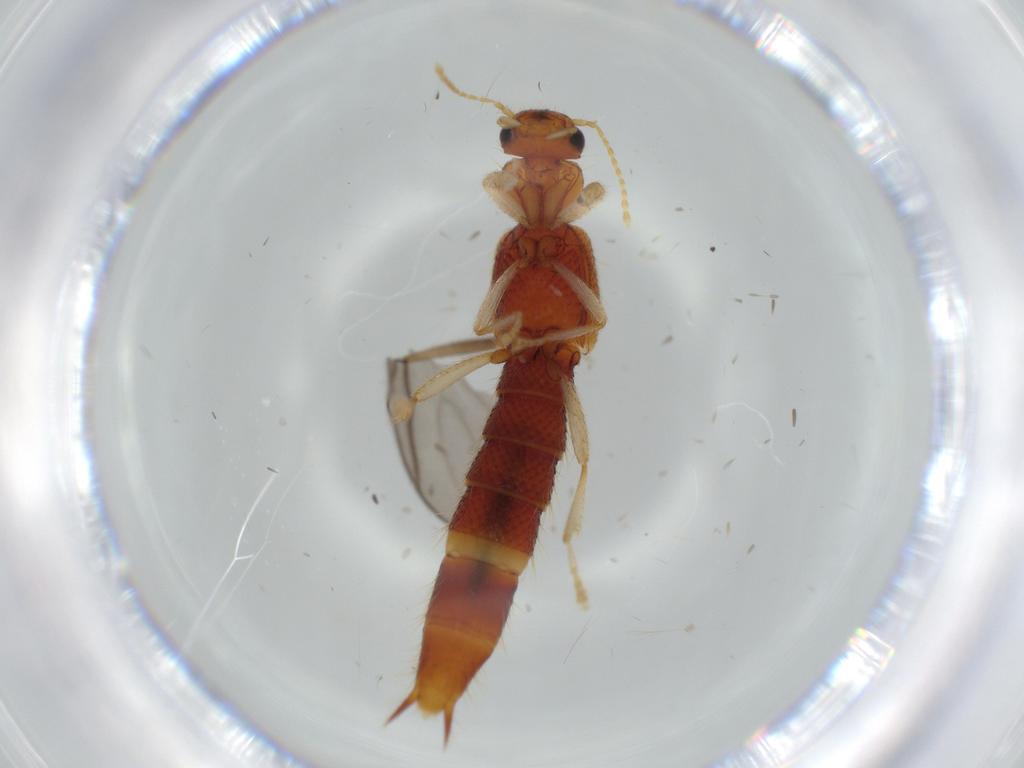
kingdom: Animalia
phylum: Arthropoda
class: Insecta
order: Coleoptera
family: Staphylinidae
